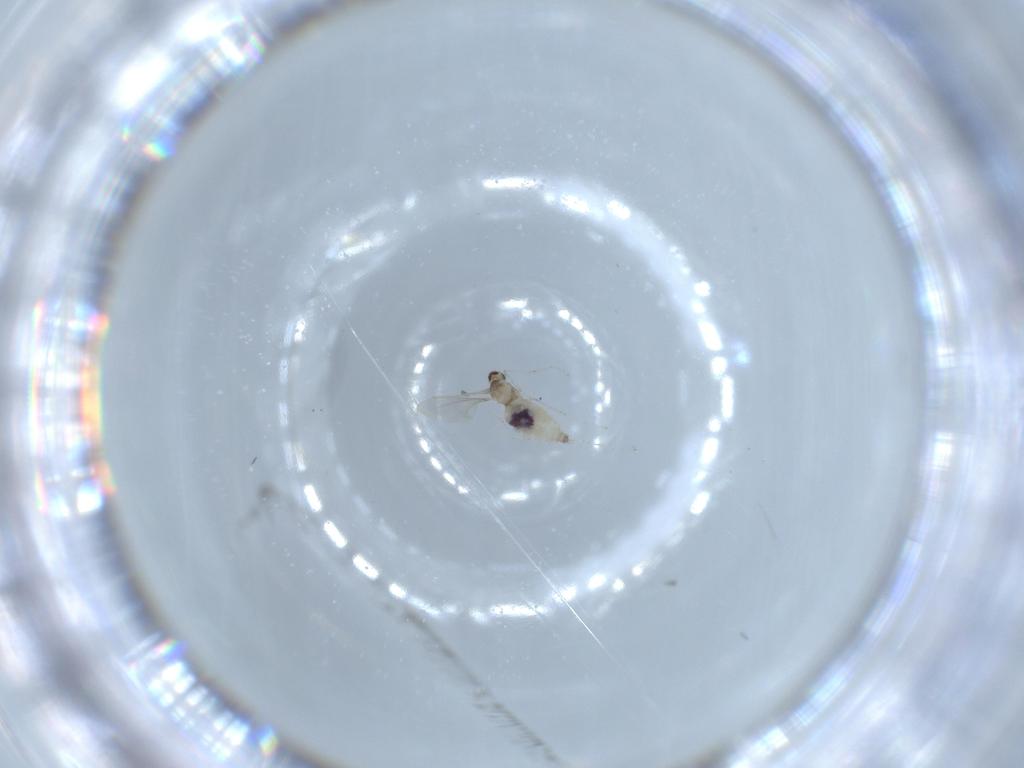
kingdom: Animalia
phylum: Arthropoda
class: Insecta
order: Diptera
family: Cecidomyiidae
